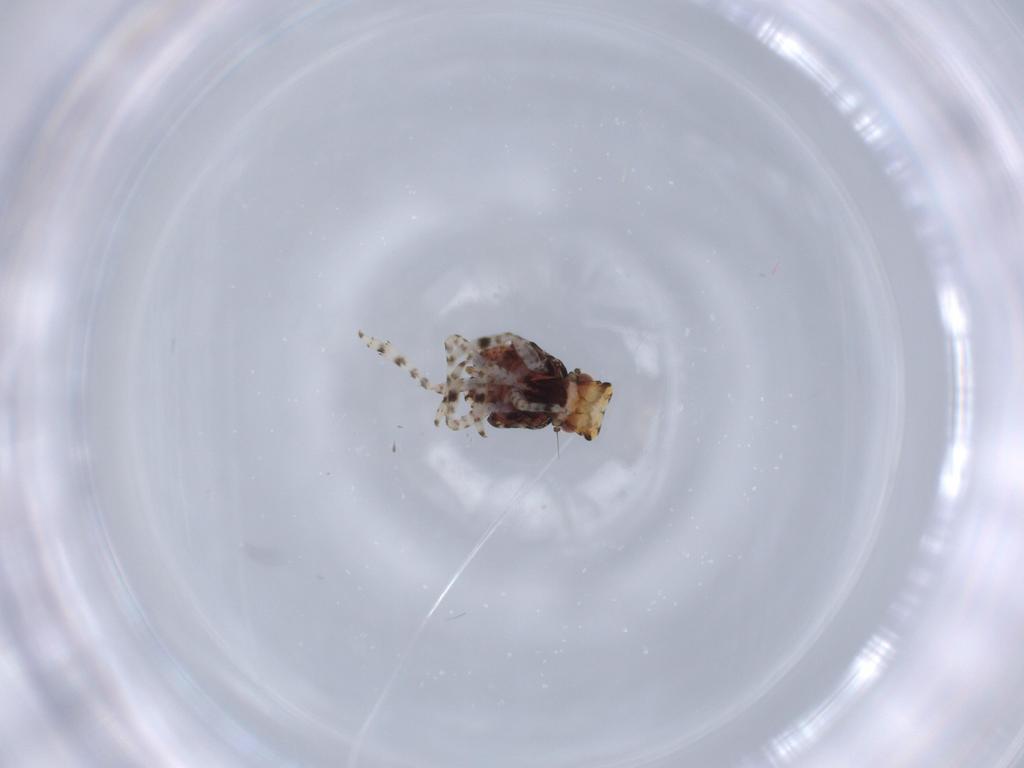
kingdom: Animalia
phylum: Arthropoda
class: Insecta
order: Hemiptera
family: Fulgoroidea_incertae_sedis
